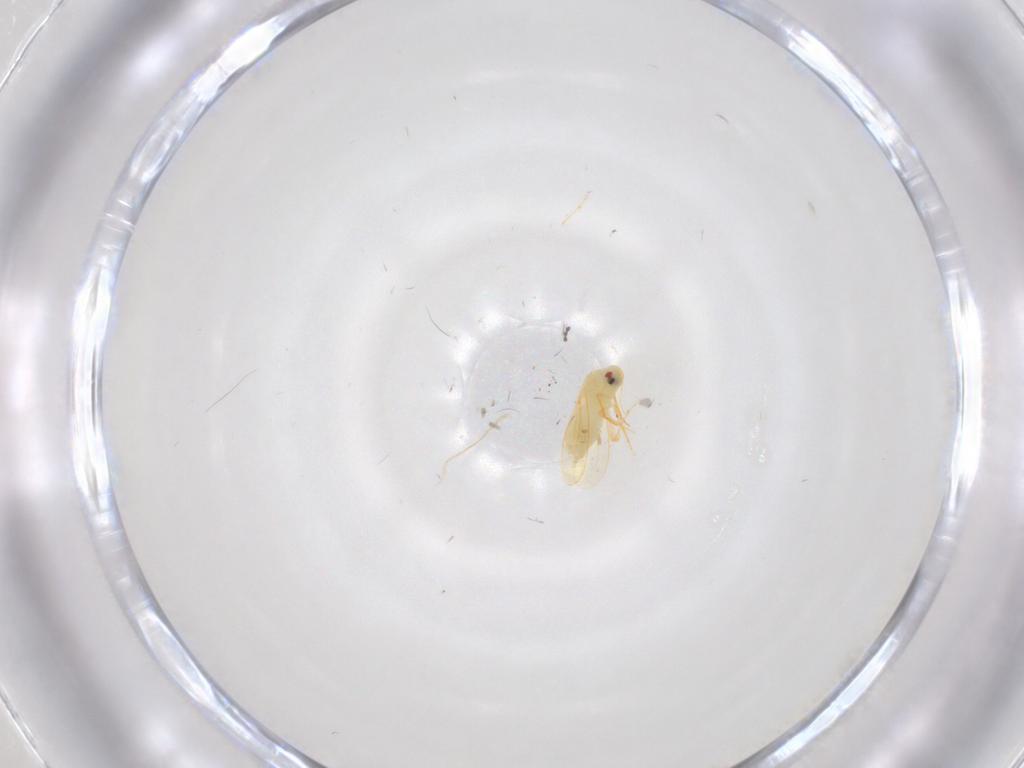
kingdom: Animalia
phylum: Arthropoda
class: Insecta
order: Hemiptera
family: Aleyrodidae
